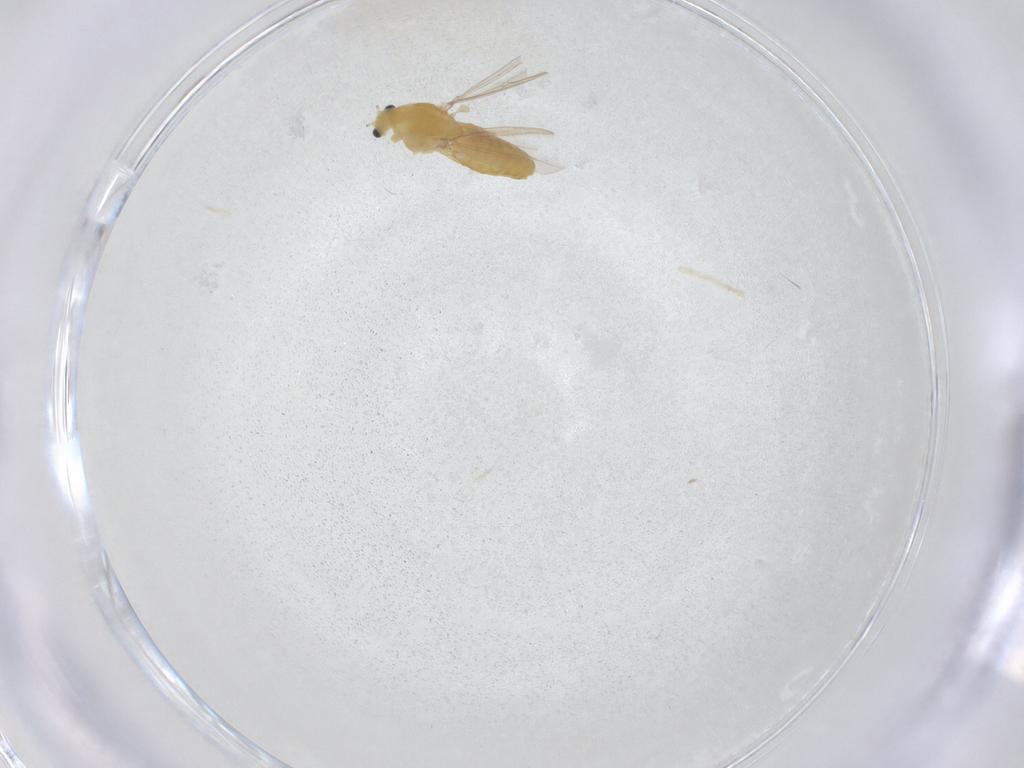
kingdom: Animalia
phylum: Arthropoda
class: Insecta
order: Diptera
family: Chironomidae
